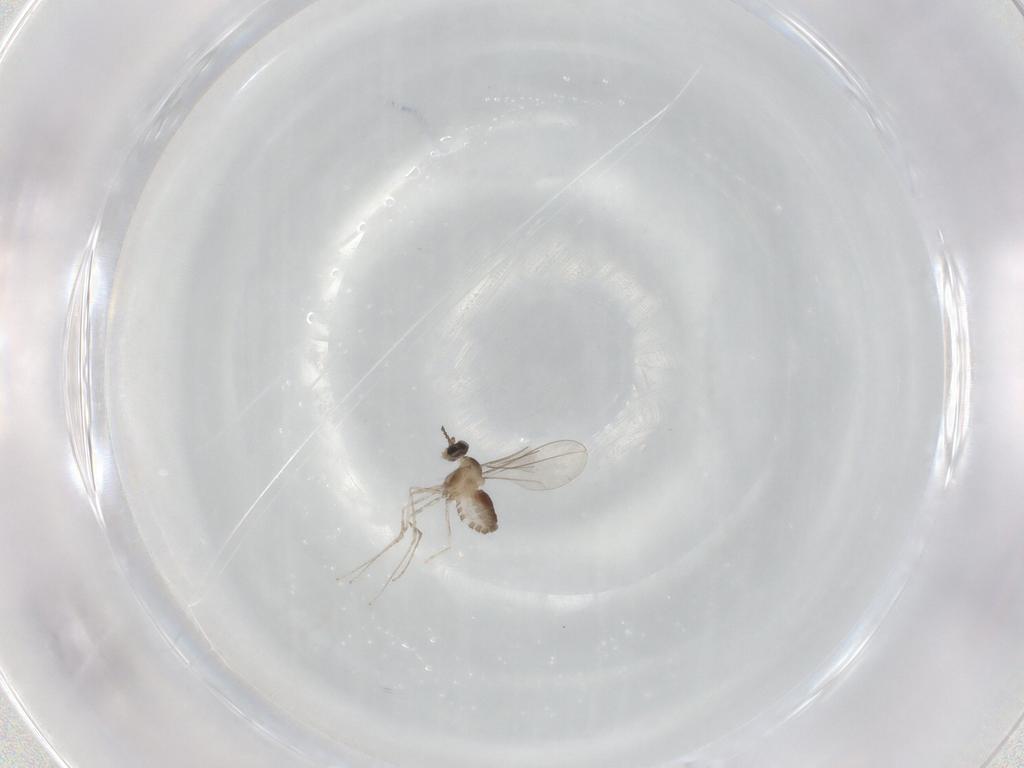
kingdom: Animalia
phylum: Arthropoda
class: Insecta
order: Diptera
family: Cecidomyiidae
